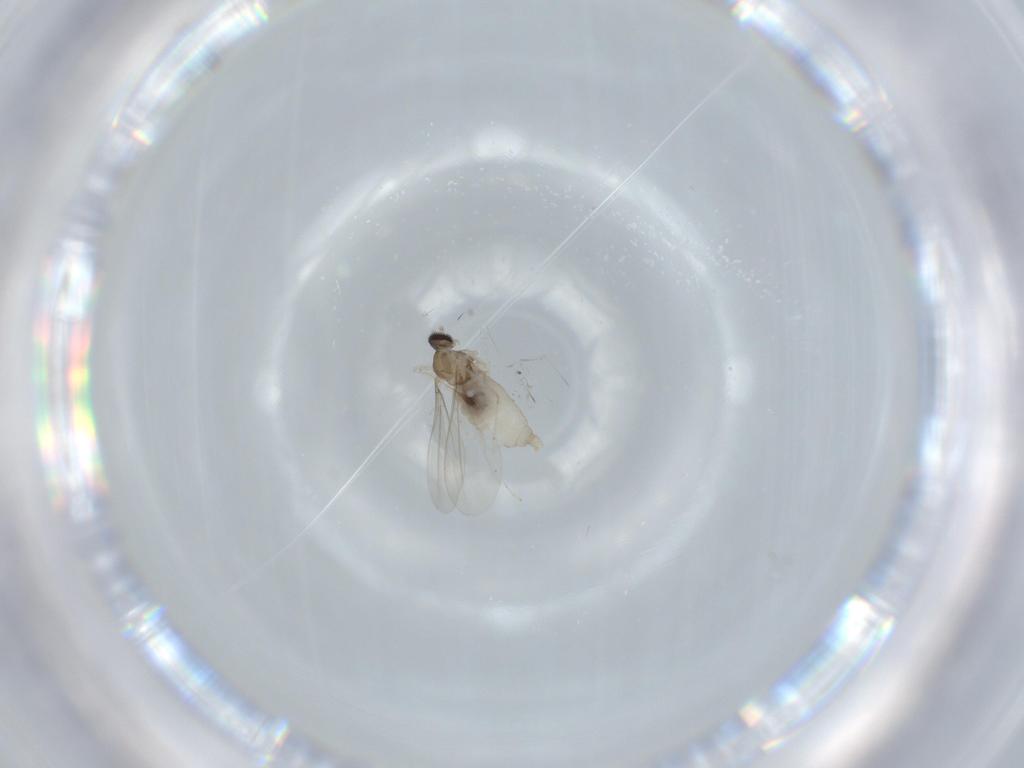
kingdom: Animalia
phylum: Arthropoda
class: Insecta
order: Diptera
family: Cecidomyiidae
